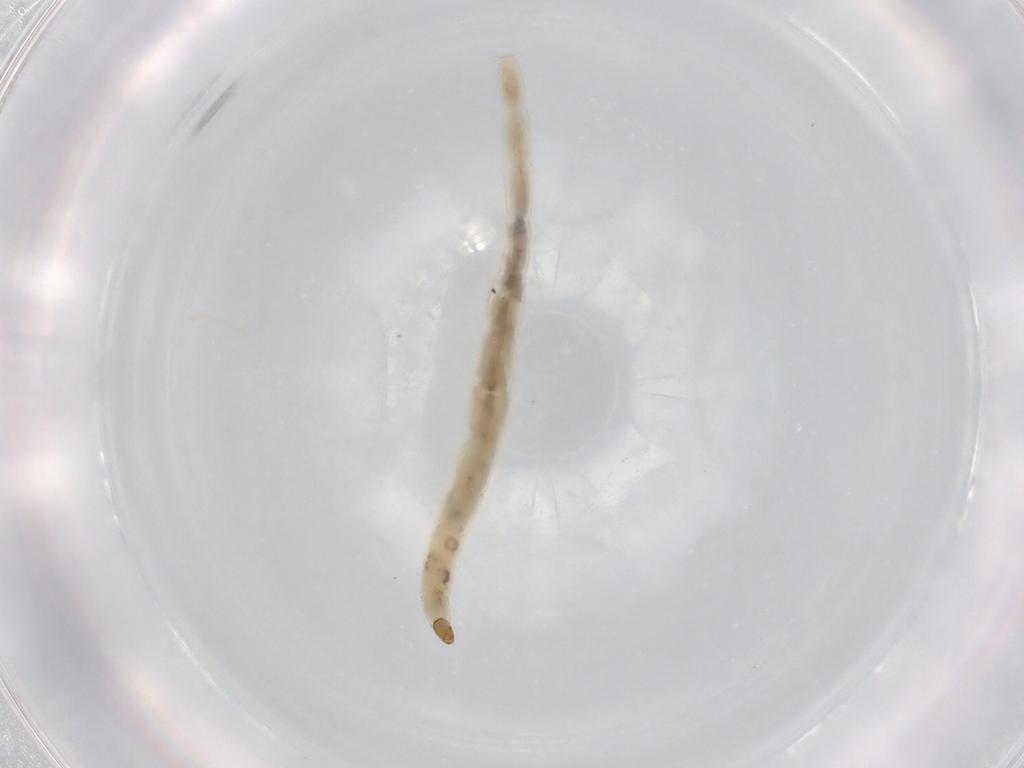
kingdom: Animalia
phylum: Arthropoda
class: Insecta
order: Diptera
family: Ceratopogonidae
